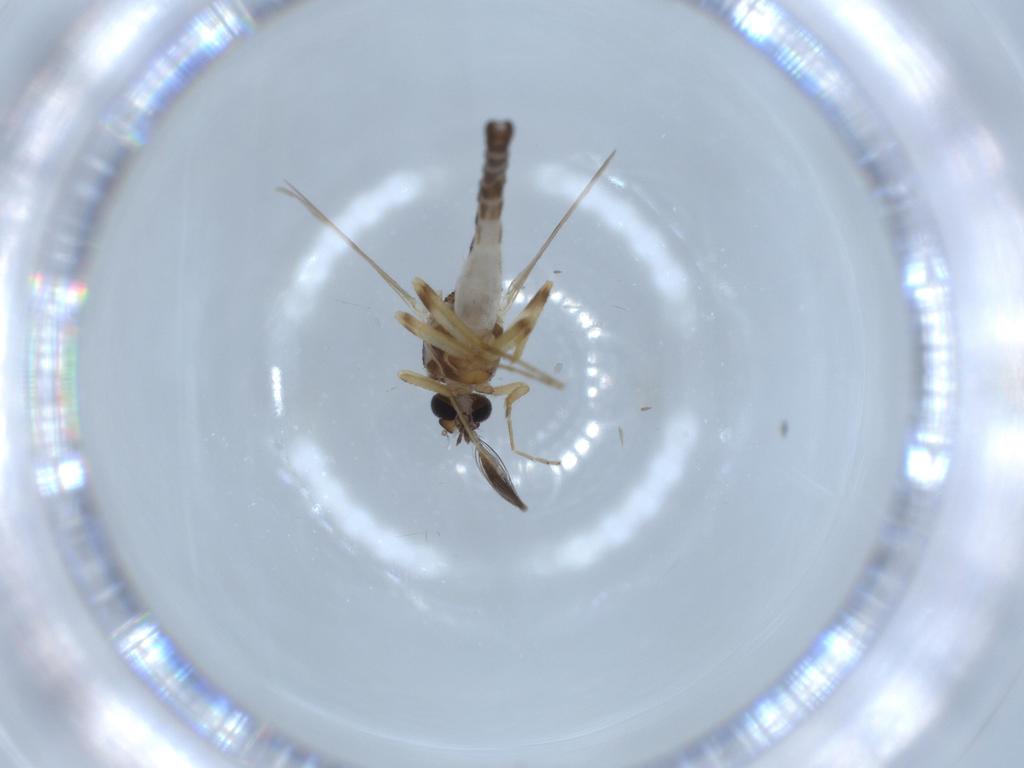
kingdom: Animalia
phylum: Arthropoda
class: Insecta
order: Diptera
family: Ceratopogonidae
